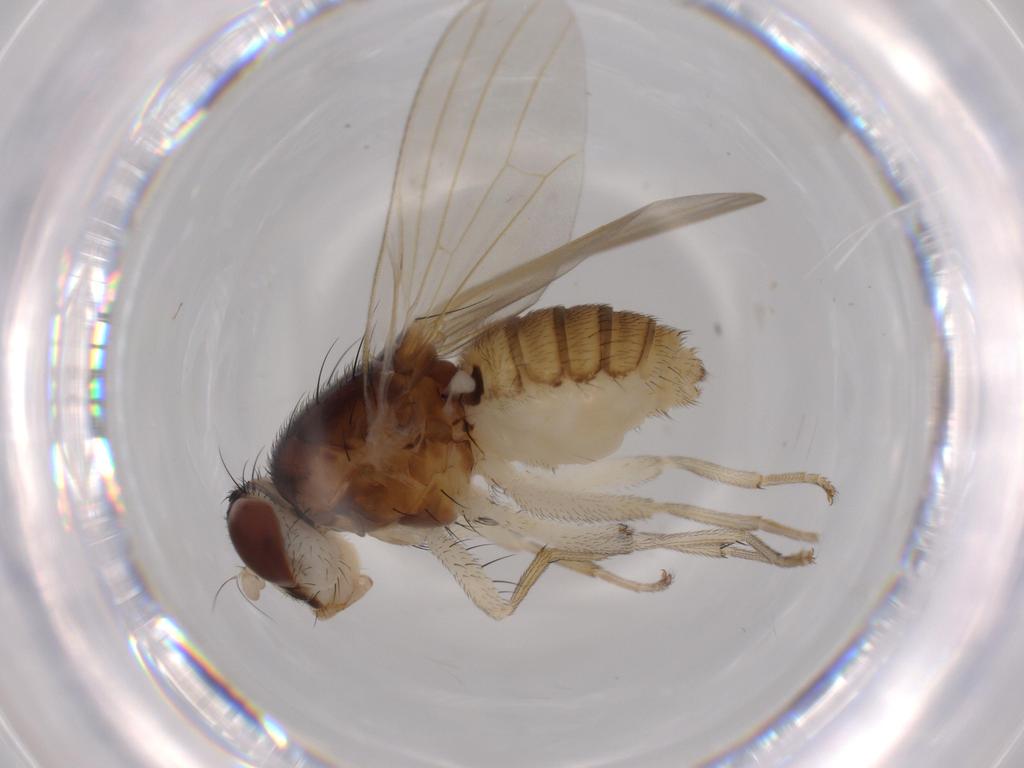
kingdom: Animalia
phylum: Arthropoda
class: Insecta
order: Diptera
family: Lauxaniidae
